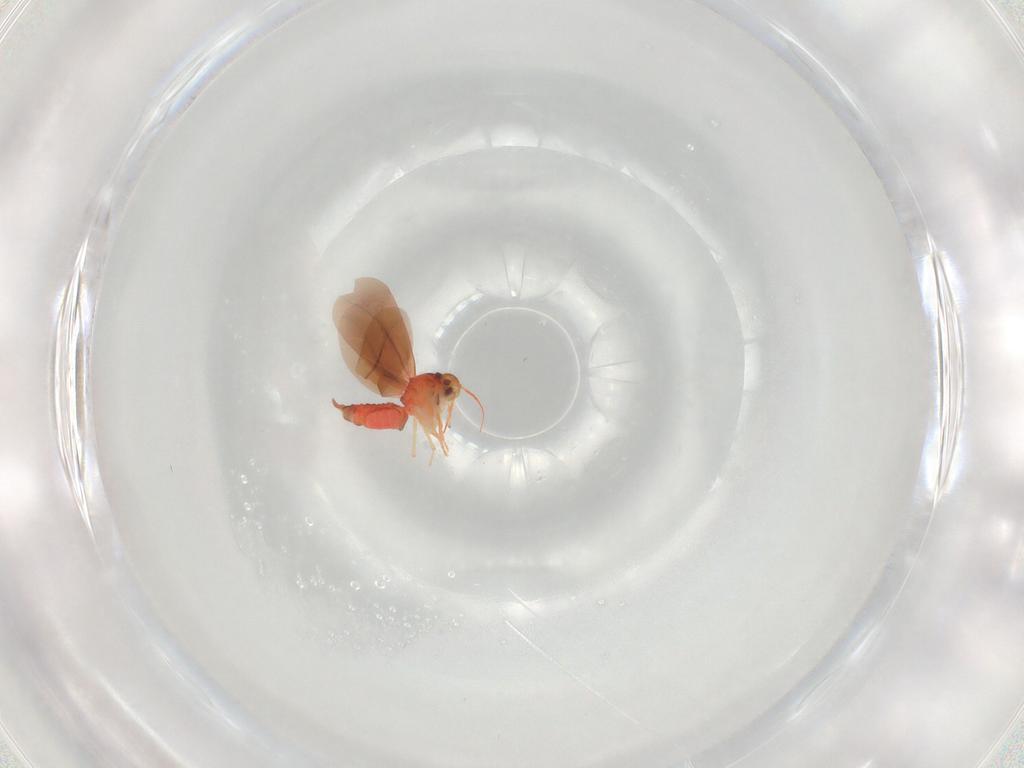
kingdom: Animalia
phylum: Arthropoda
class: Insecta
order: Hemiptera
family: Aleyrodidae
